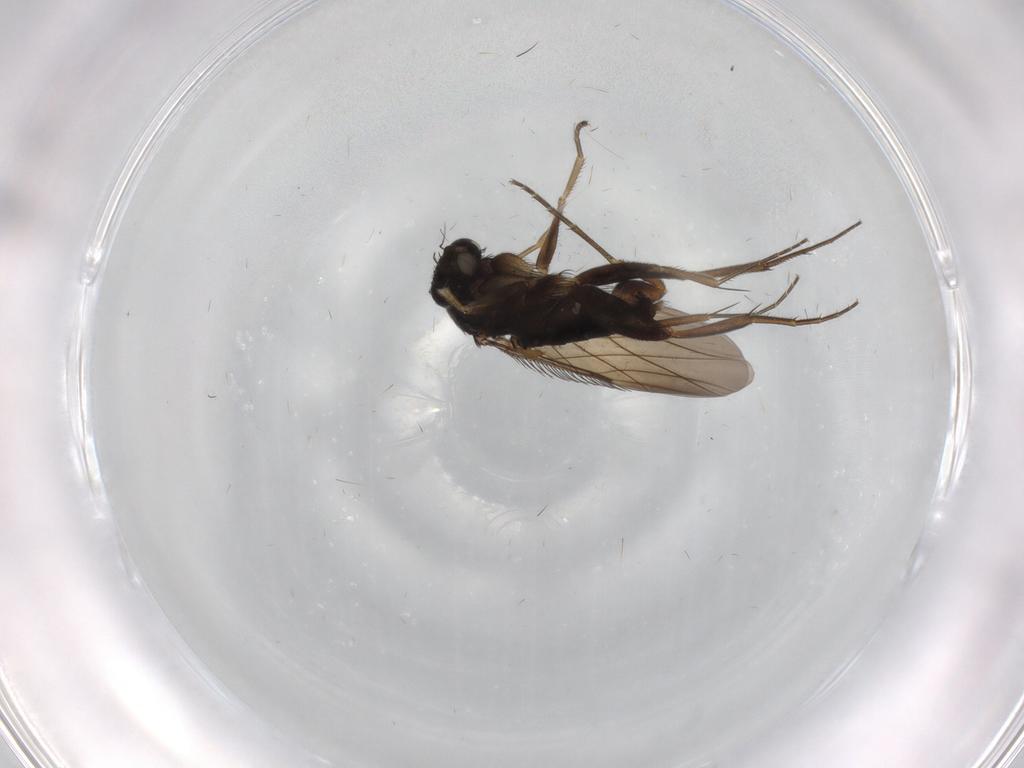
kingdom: Animalia
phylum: Arthropoda
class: Insecta
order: Diptera
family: Phoridae
